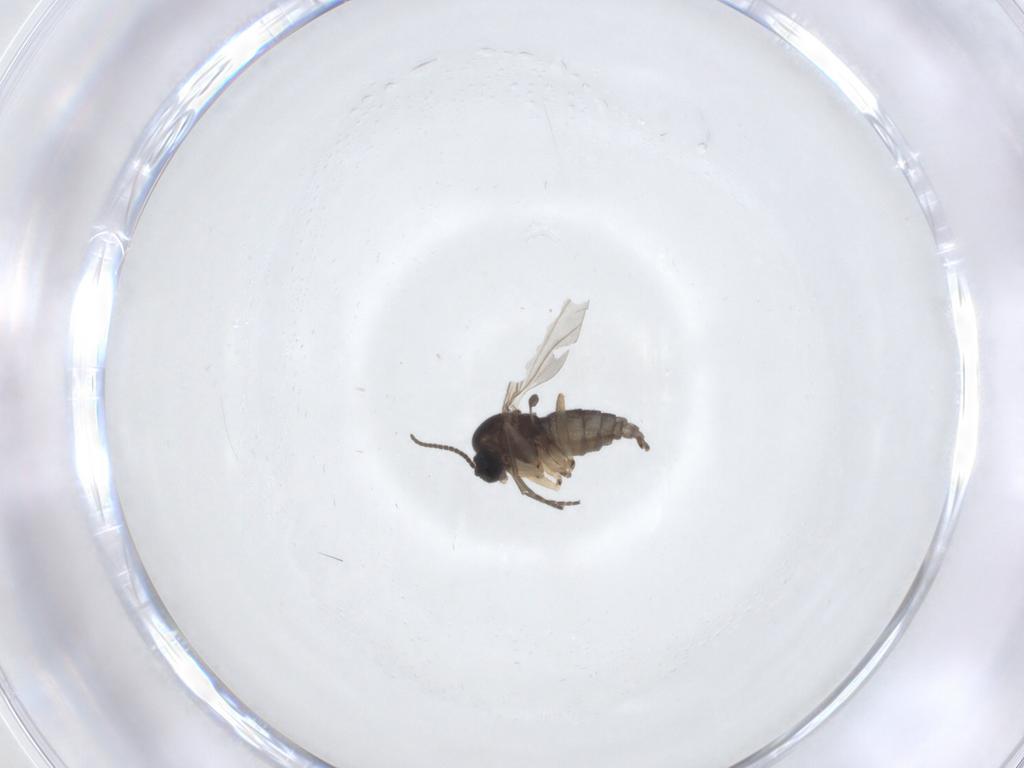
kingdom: Animalia
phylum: Arthropoda
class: Insecta
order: Diptera
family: Sciaridae
